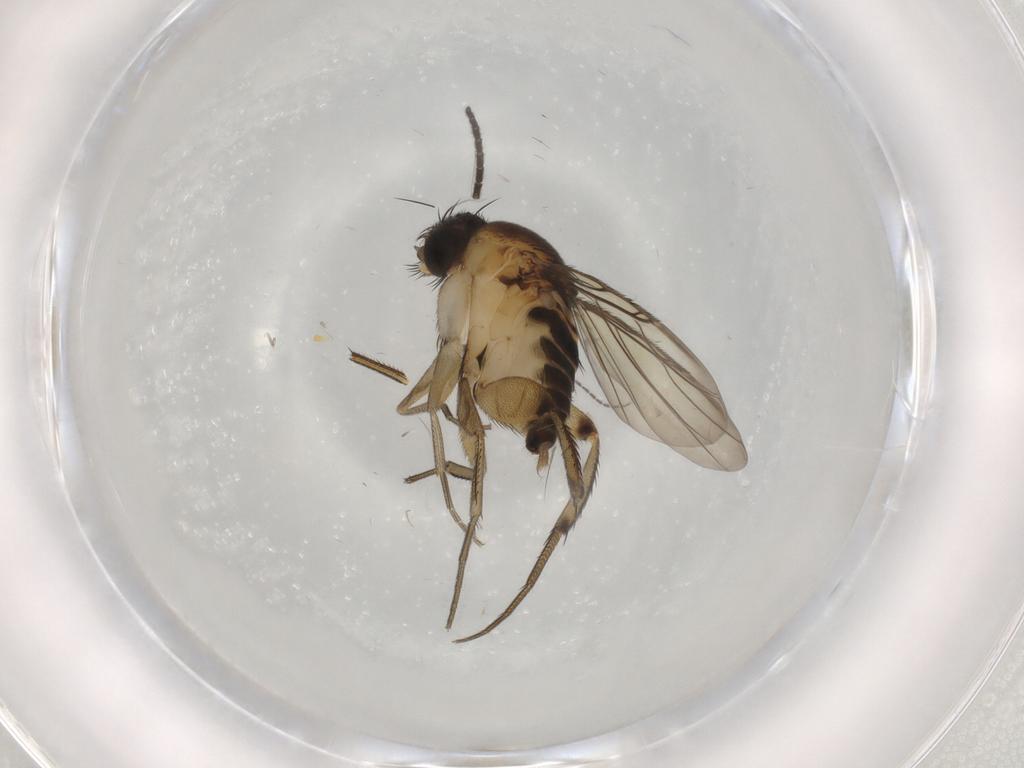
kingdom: Animalia
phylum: Arthropoda
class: Insecta
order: Diptera
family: Phoridae
